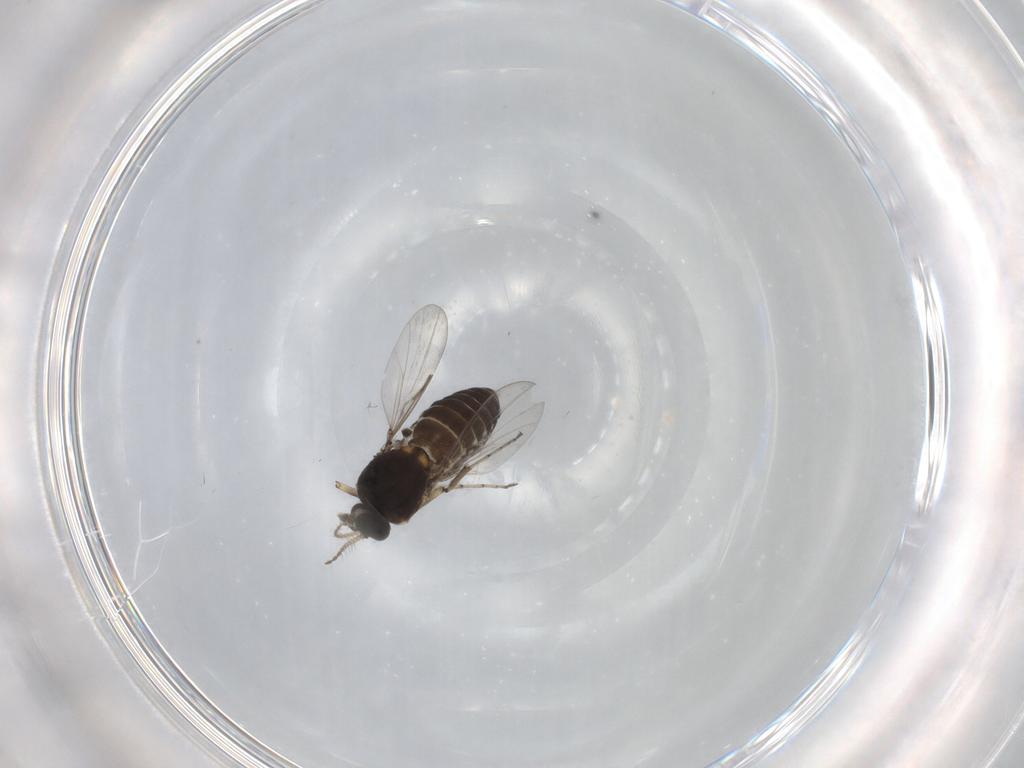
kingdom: Animalia
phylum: Arthropoda
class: Insecta
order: Diptera
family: Ceratopogonidae
